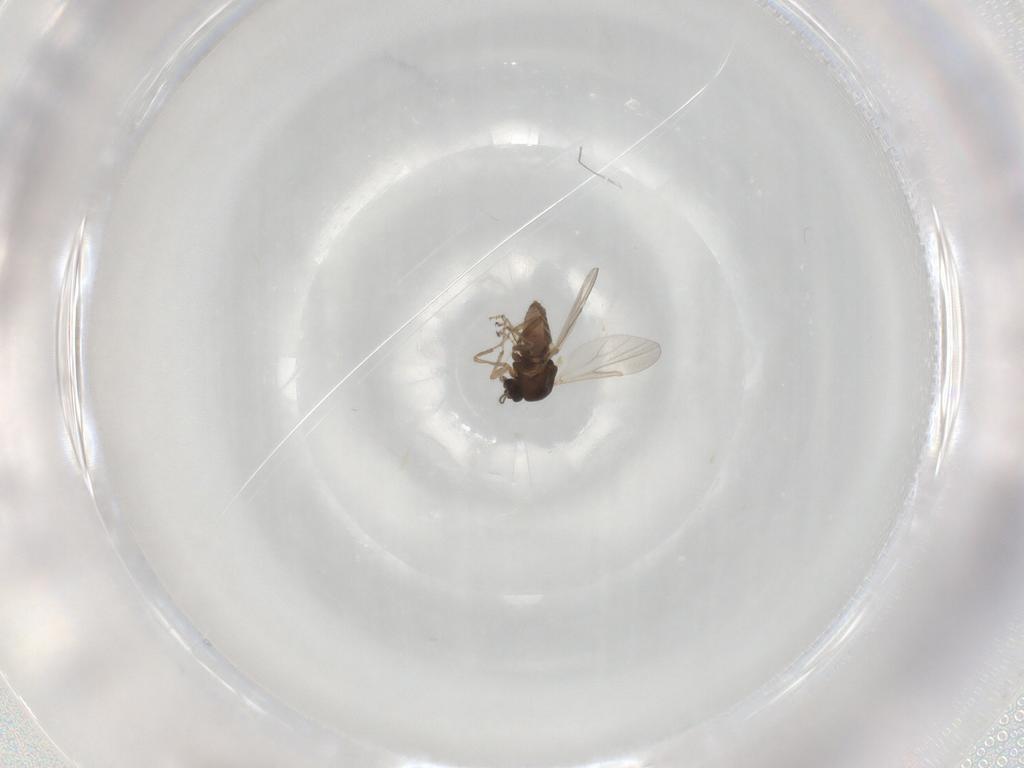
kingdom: Animalia
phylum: Arthropoda
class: Insecta
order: Diptera
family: Ceratopogonidae
